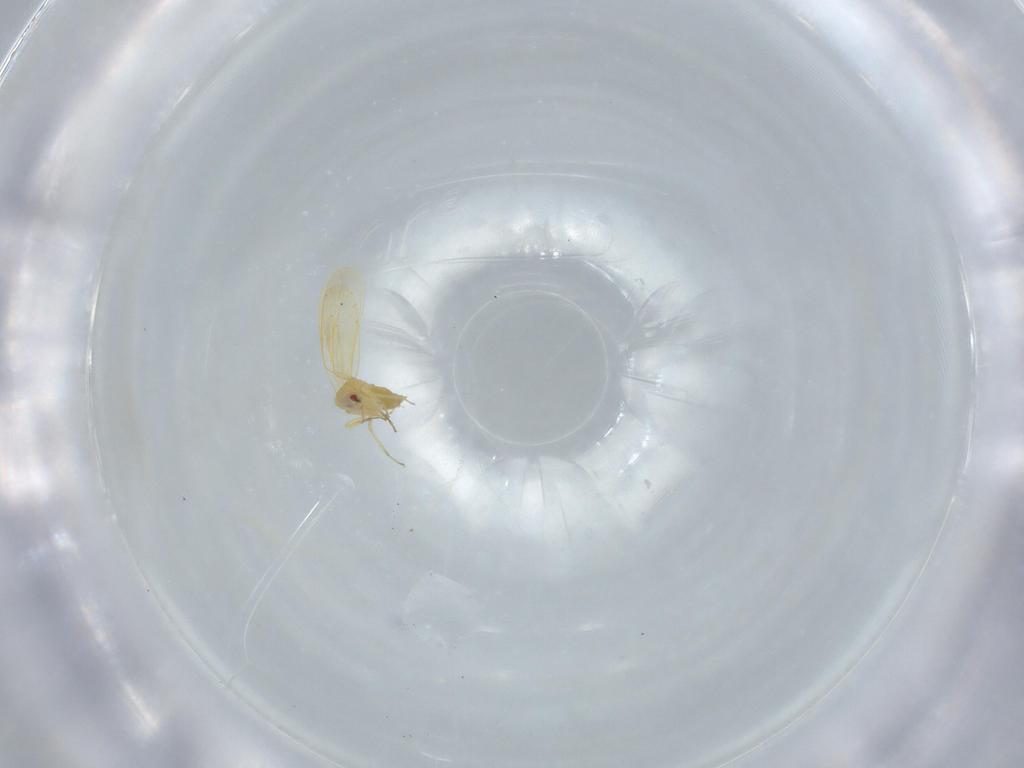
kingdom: Animalia
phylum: Arthropoda
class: Insecta
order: Hemiptera
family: Aleyrodidae
